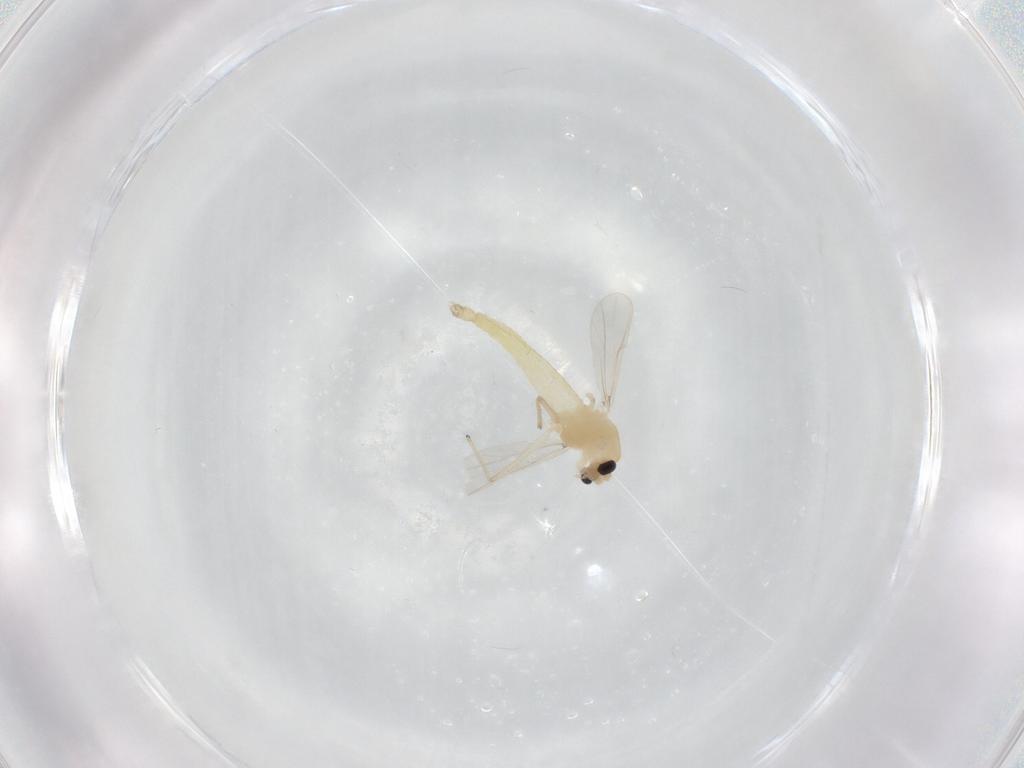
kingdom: Animalia
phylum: Arthropoda
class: Insecta
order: Diptera
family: Chironomidae
